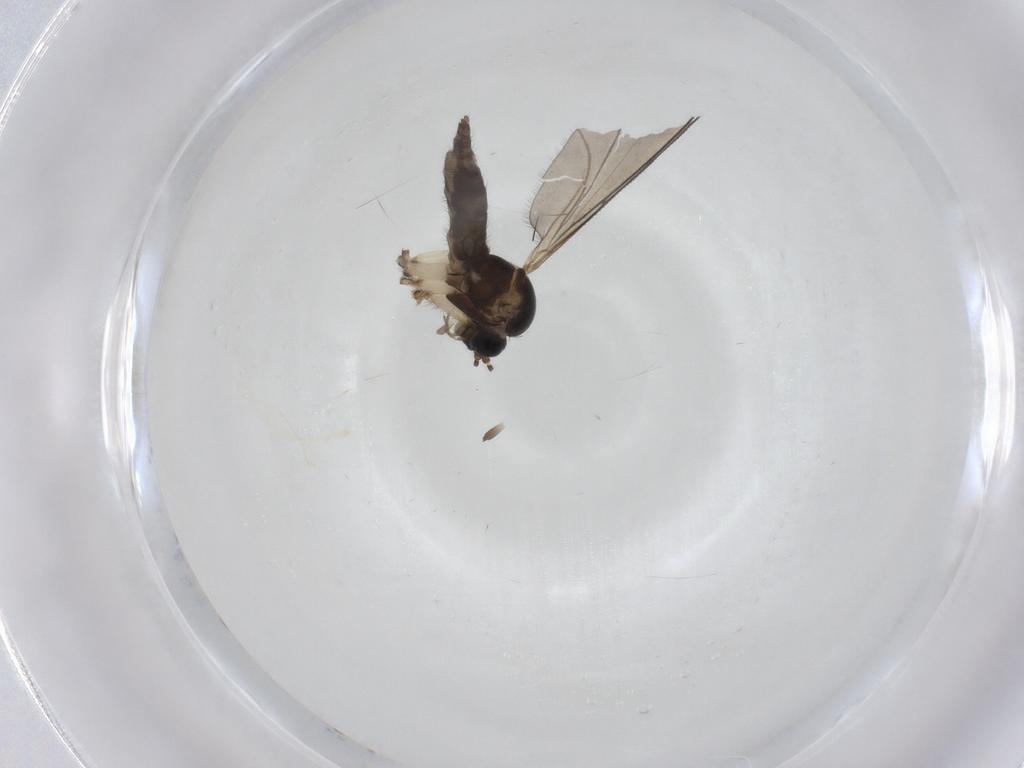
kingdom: Animalia
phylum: Arthropoda
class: Insecta
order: Diptera
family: Sciaridae
